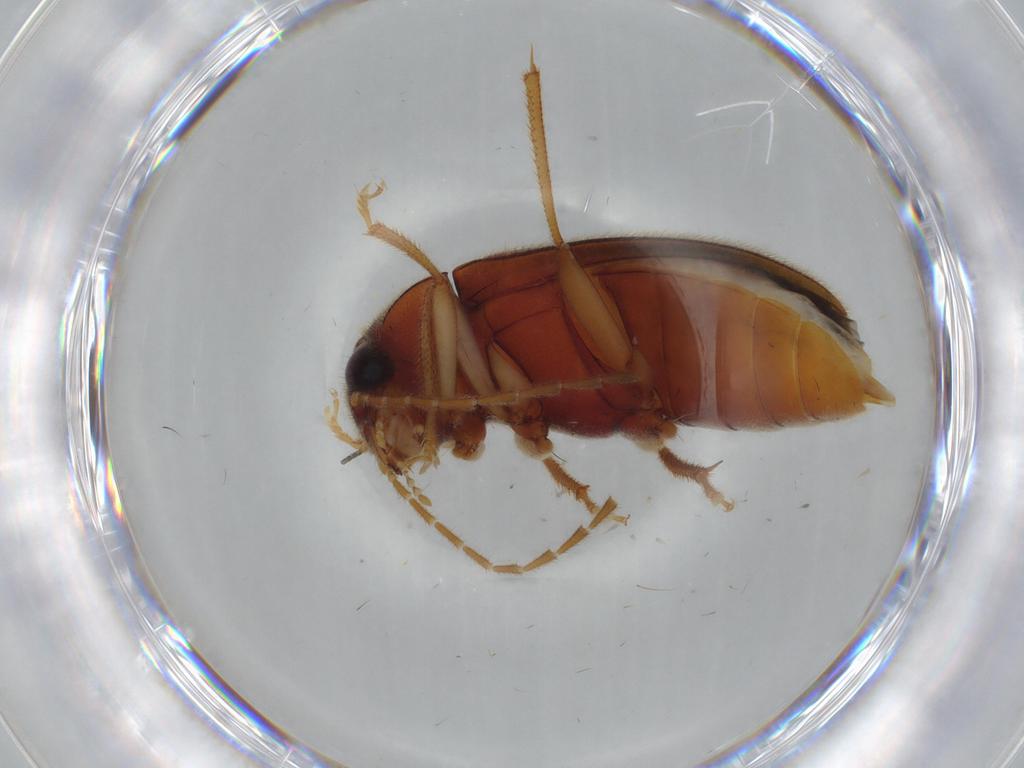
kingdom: Animalia
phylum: Arthropoda
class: Insecta
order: Coleoptera
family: Ptilodactylidae
